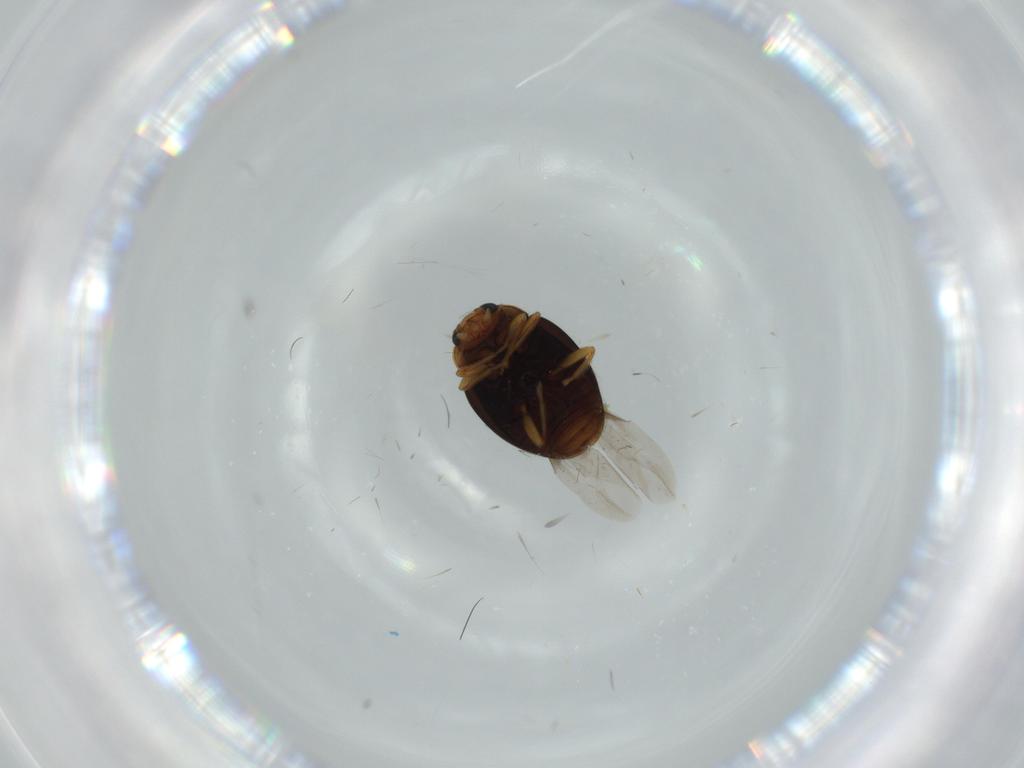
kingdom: Animalia
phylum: Arthropoda
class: Insecta
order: Coleoptera
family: Coccinellidae
